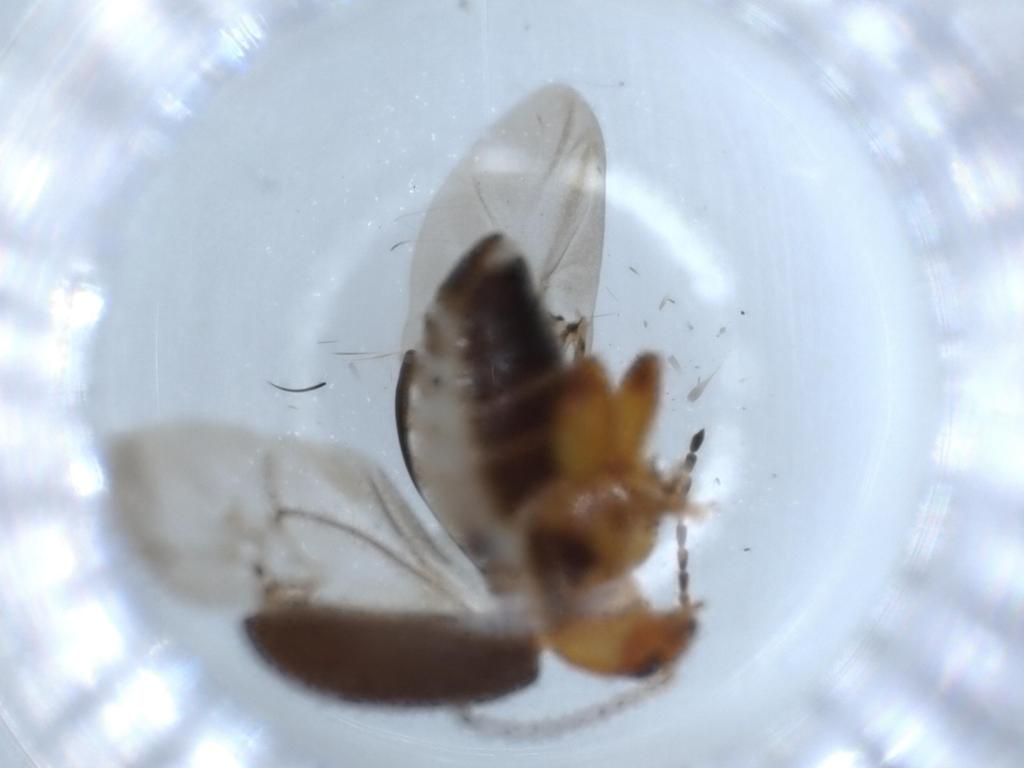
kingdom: Animalia
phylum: Arthropoda
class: Insecta
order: Coleoptera
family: Chrysomelidae
